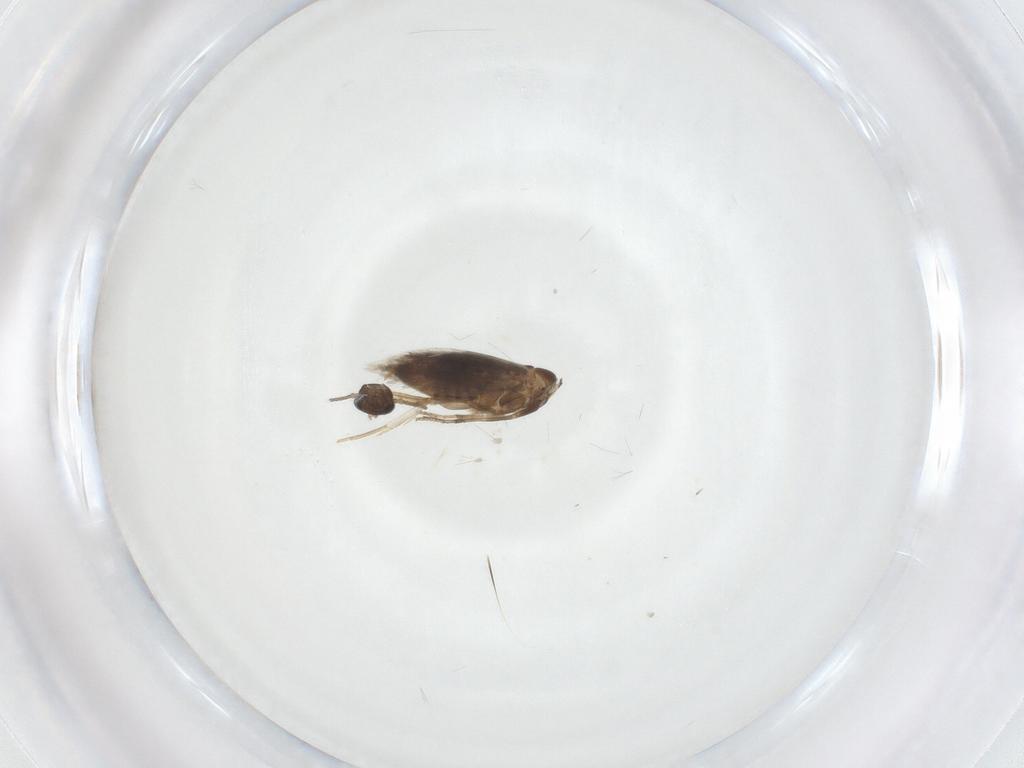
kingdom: Animalia
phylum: Arthropoda
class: Insecta
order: Lepidoptera
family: Heliozelidae
